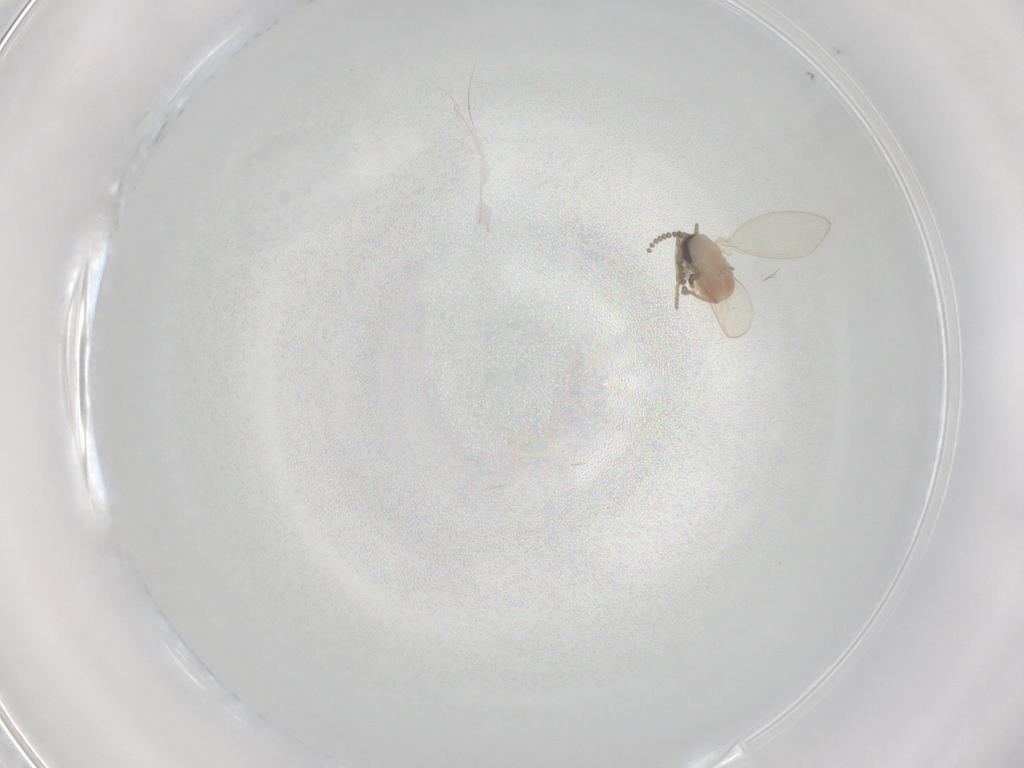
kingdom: Animalia
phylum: Arthropoda
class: Insecta
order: Diptera
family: Psychodidae
